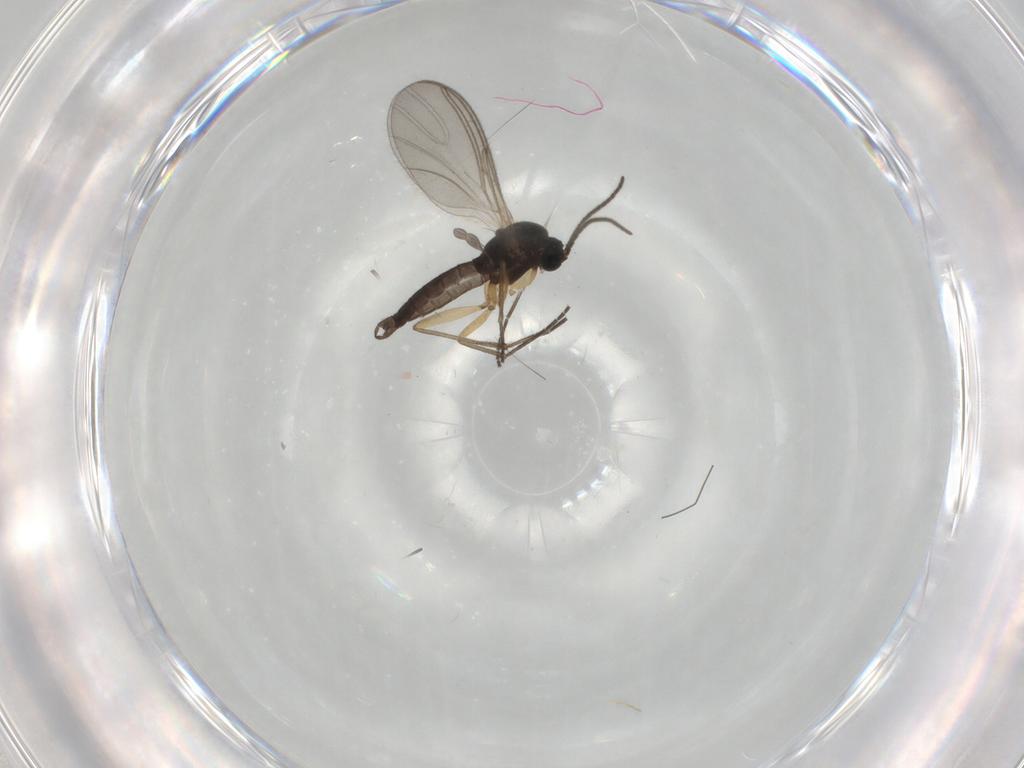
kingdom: Animalia
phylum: Arthropoda
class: Insecta
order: Diptera
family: Sciaridae
